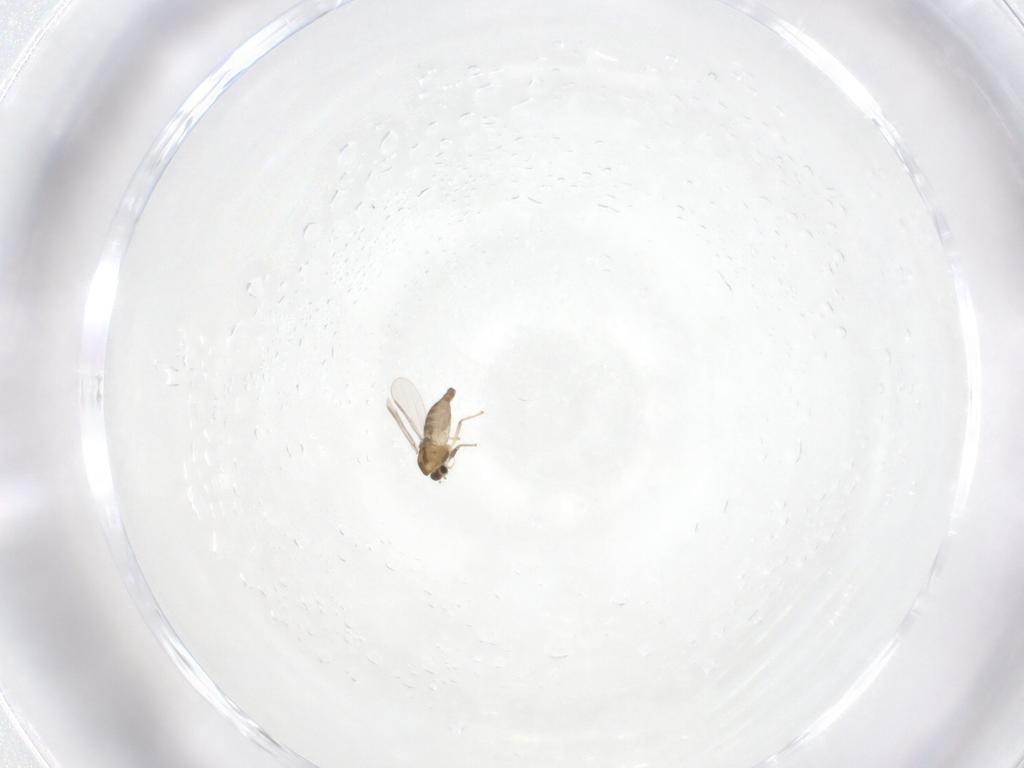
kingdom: Animalia
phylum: Arthropoda
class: Insecta
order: Diptera
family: Chironomidae
